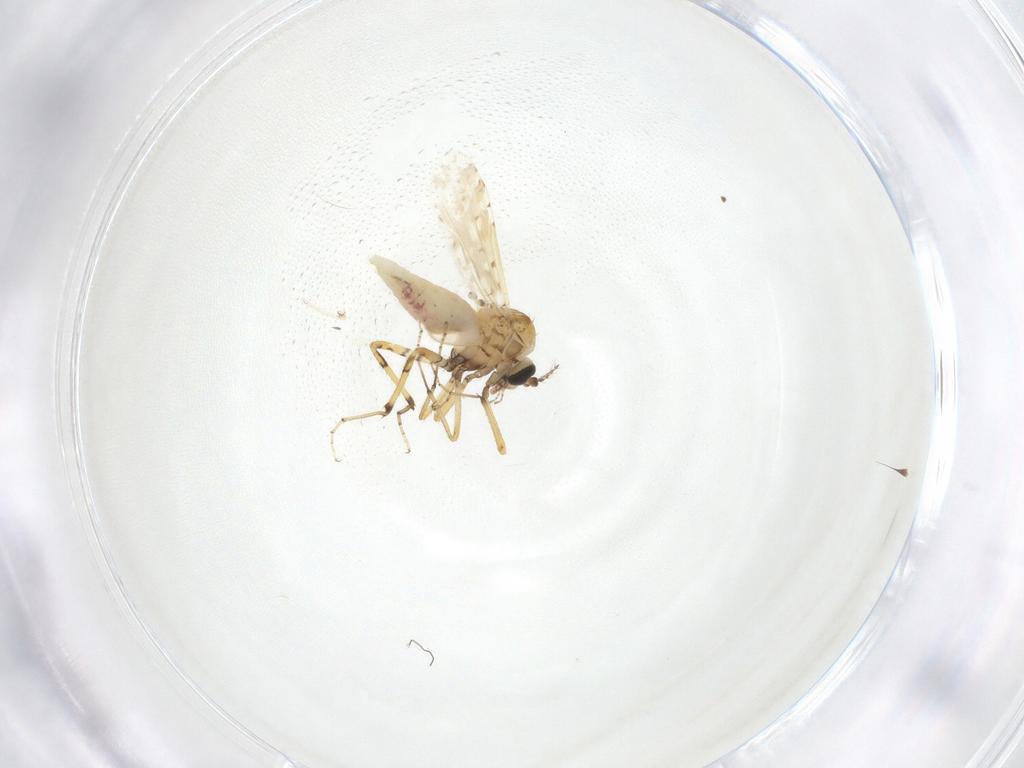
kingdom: Animalia
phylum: Arthropoda
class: Insecta
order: Diptera
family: Ceratopogonidae
